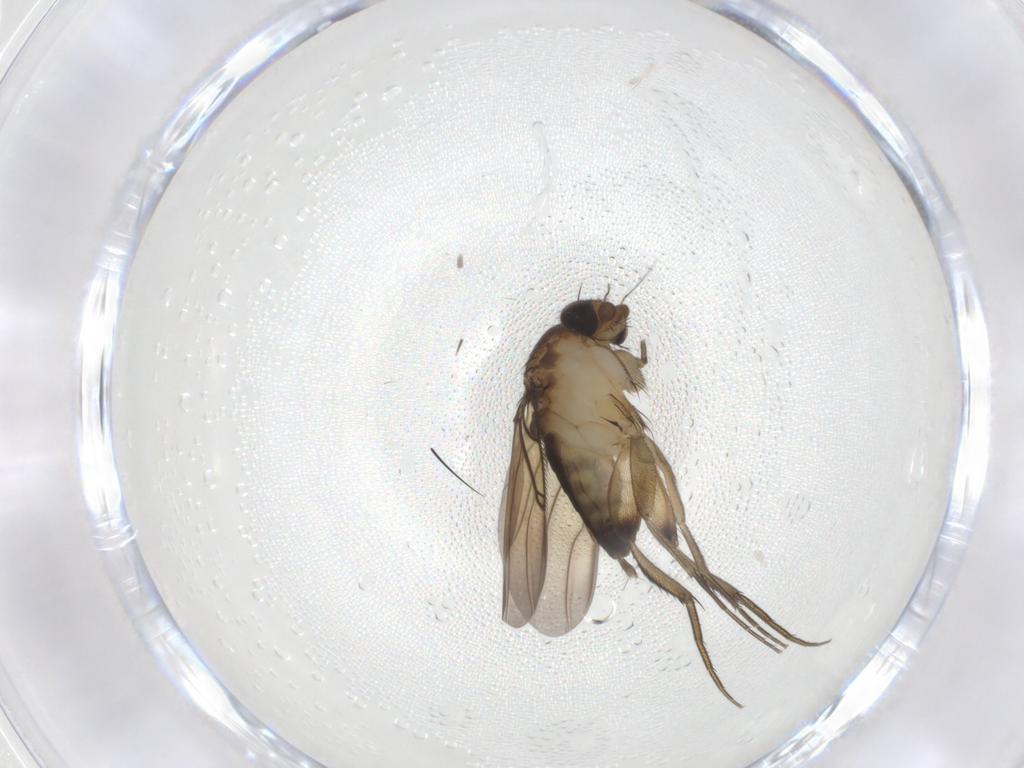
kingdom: Animalia
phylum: Arthropoda
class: Insecta
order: Diptera
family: Phoridae
